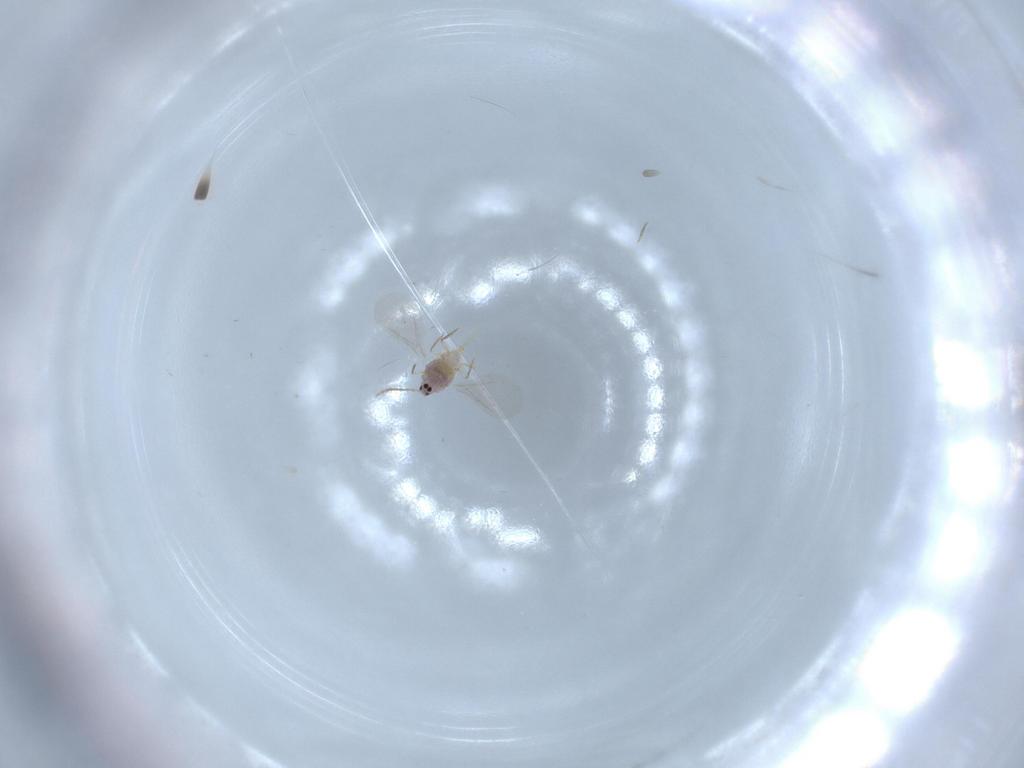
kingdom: Animalia
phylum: Arthropoda
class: Insecta
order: Hemiptera
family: Diaspididae
